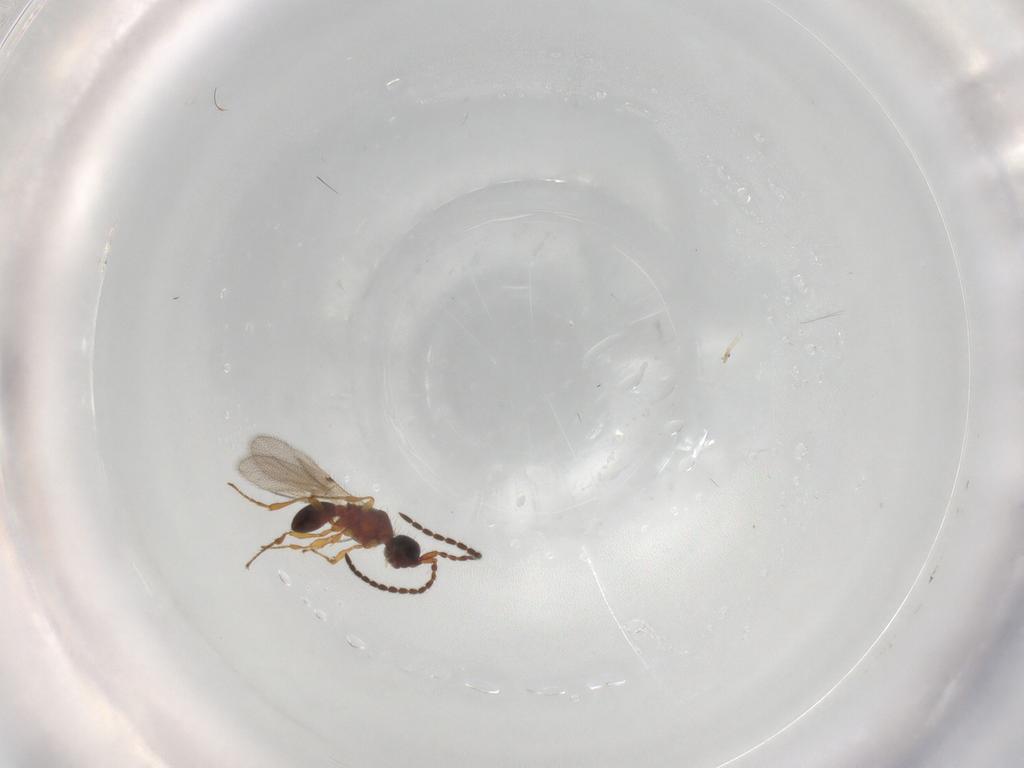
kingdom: Animalia
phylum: Arthropoda
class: Insecta
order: Hymenoptera
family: Diapriidae
